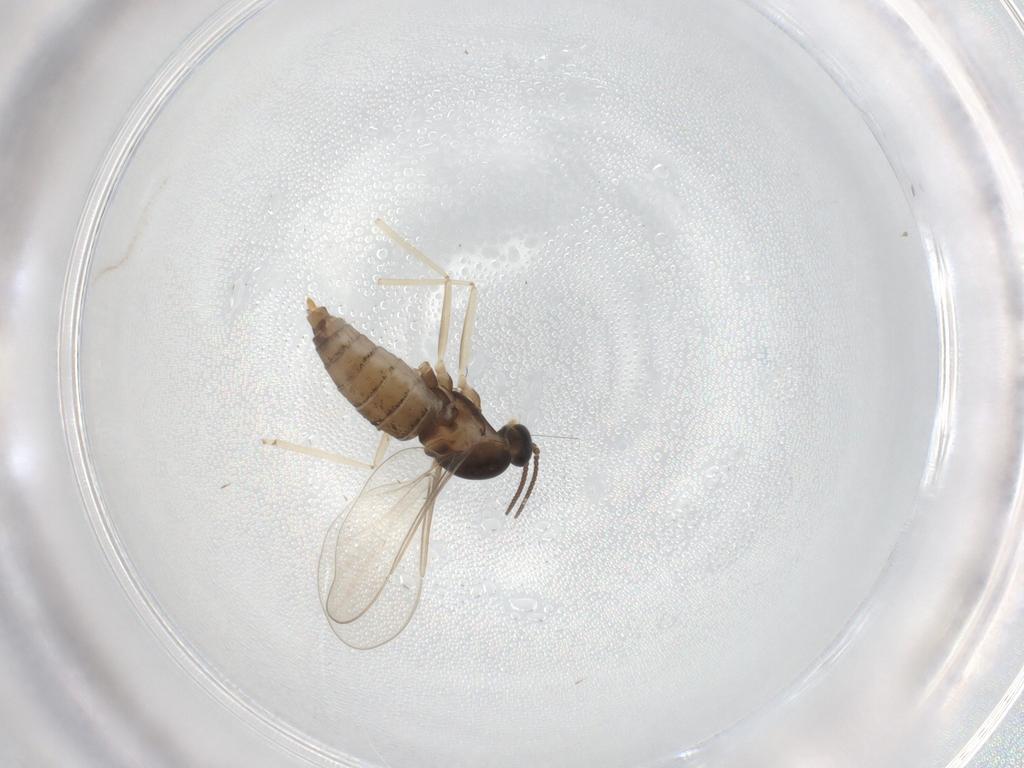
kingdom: Animalia
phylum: Arthropoda
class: Insecta
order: Diptera
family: Cecidomyiidae
